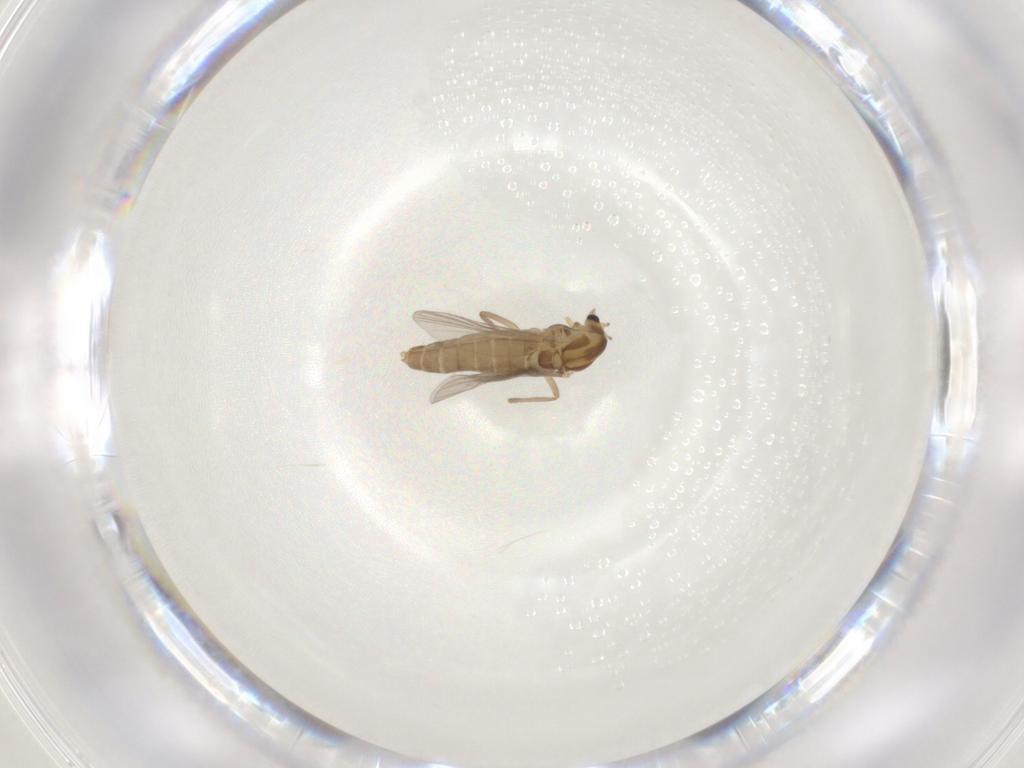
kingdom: Animalia
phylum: Arthropoda
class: Insecta
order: Diptera
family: Chironomidae
